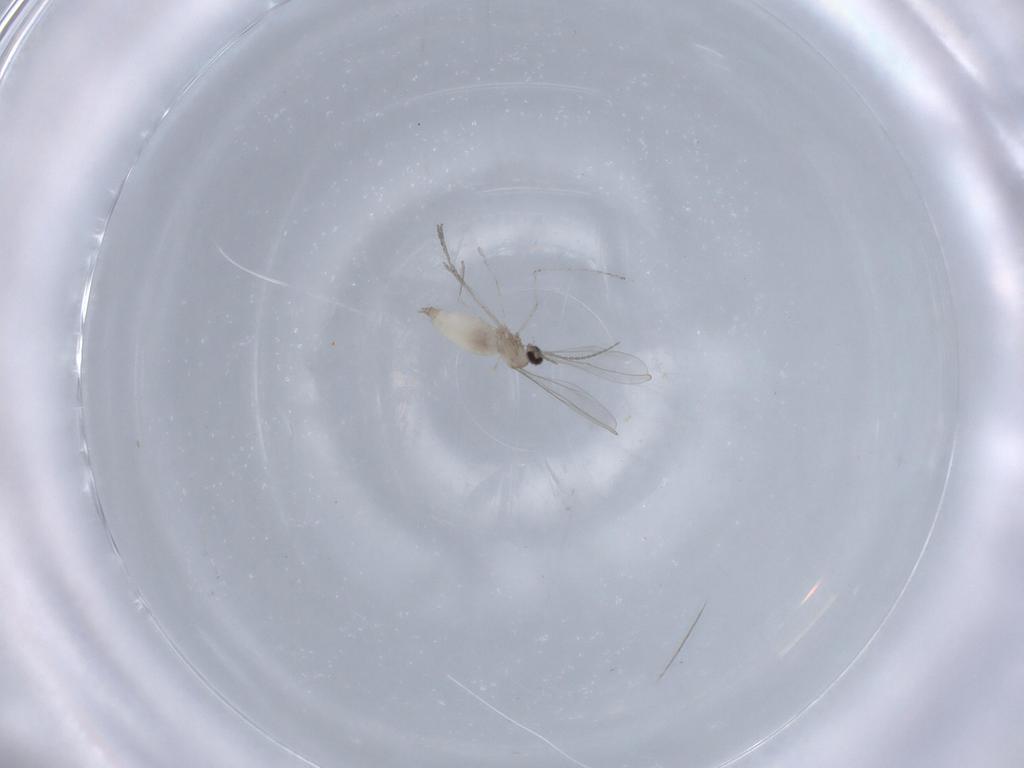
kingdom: Animalia
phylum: Arthropoda
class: Insecta
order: Diptera
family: Cecidomyiidae
